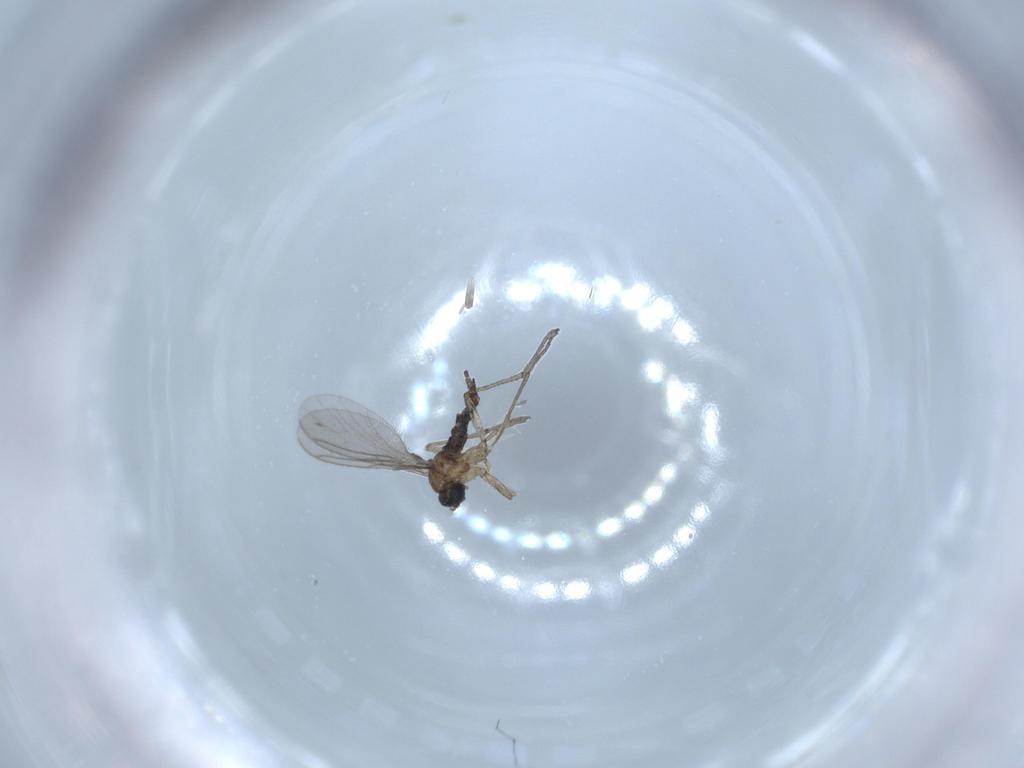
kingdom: Animalia
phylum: Arthropoda
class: Insecta
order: Diptera
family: Sciaridae
